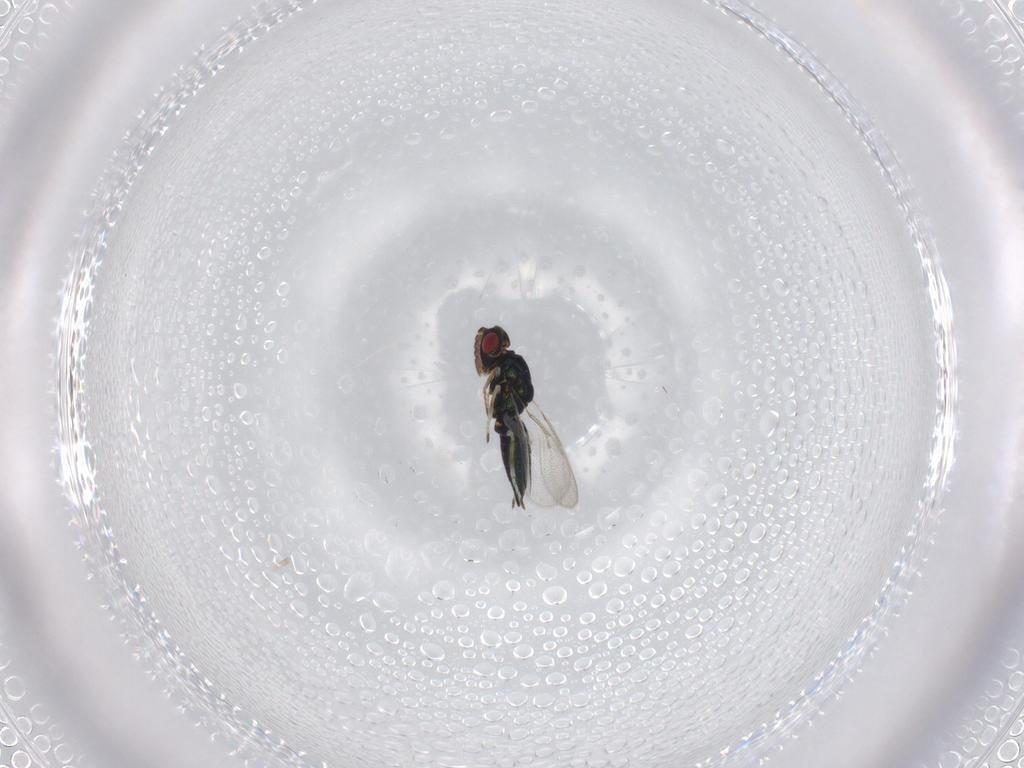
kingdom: Animalia
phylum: Arthropoda
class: Insecta
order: Hymenoptera
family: Eulophidae
